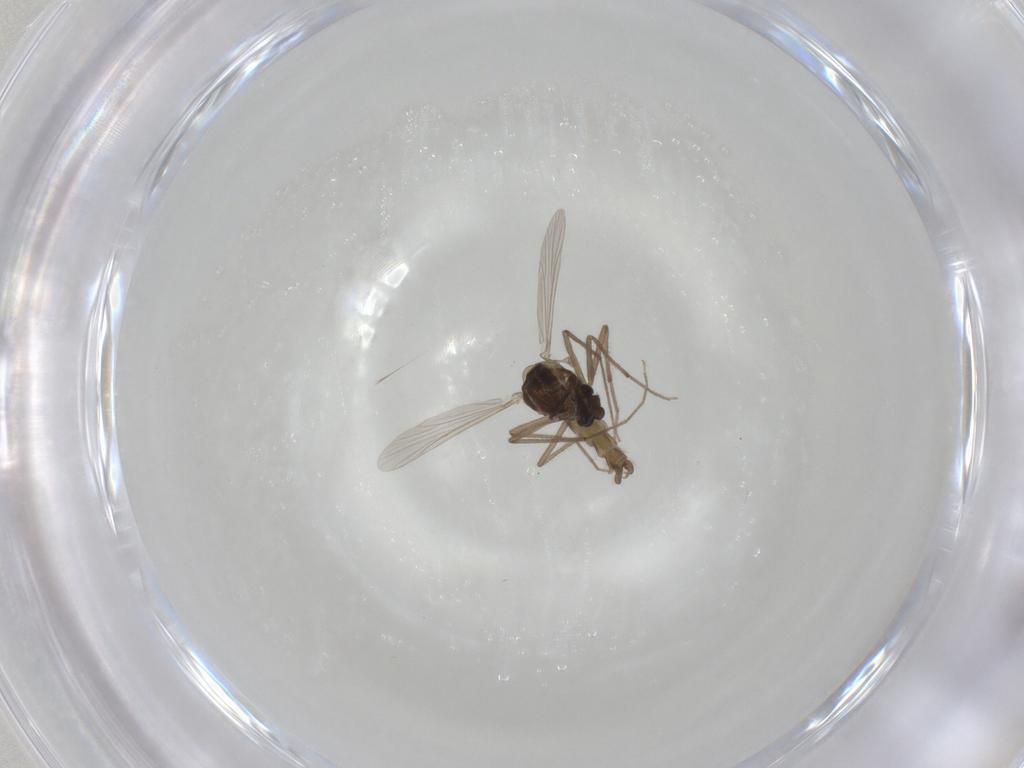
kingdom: Animalia
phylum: Arthropoda
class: Insecta
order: Diptera
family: Chironomidae
